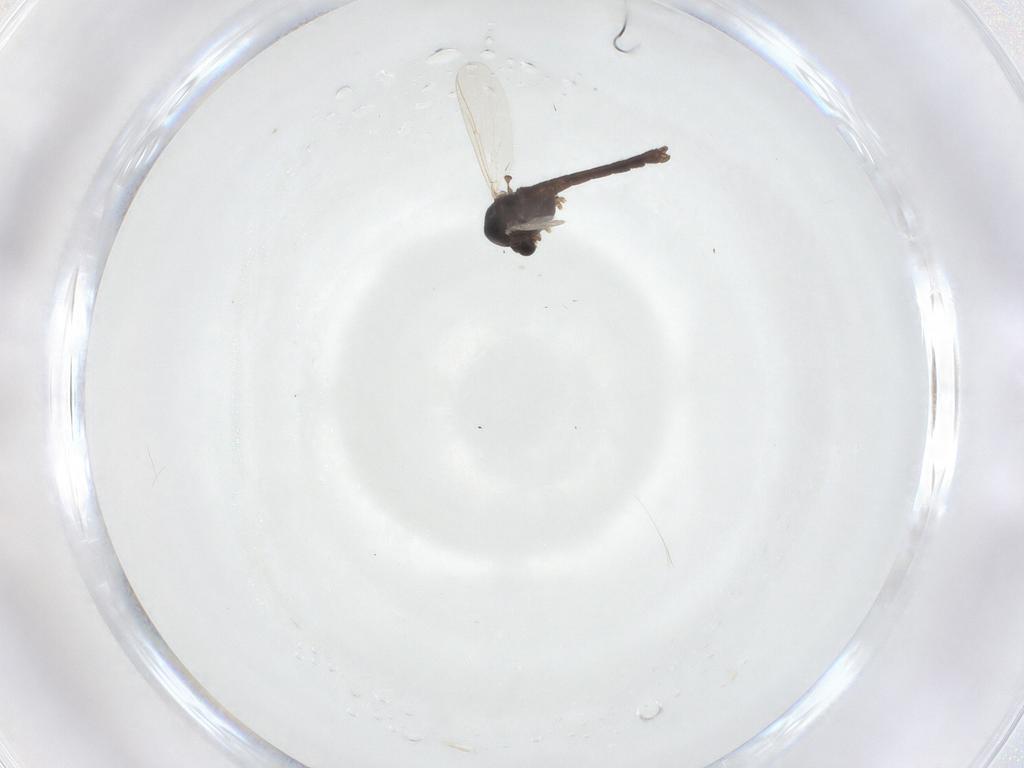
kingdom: Animalia
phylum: Arthropoda
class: Insecta
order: Diptera
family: Chironomidae
